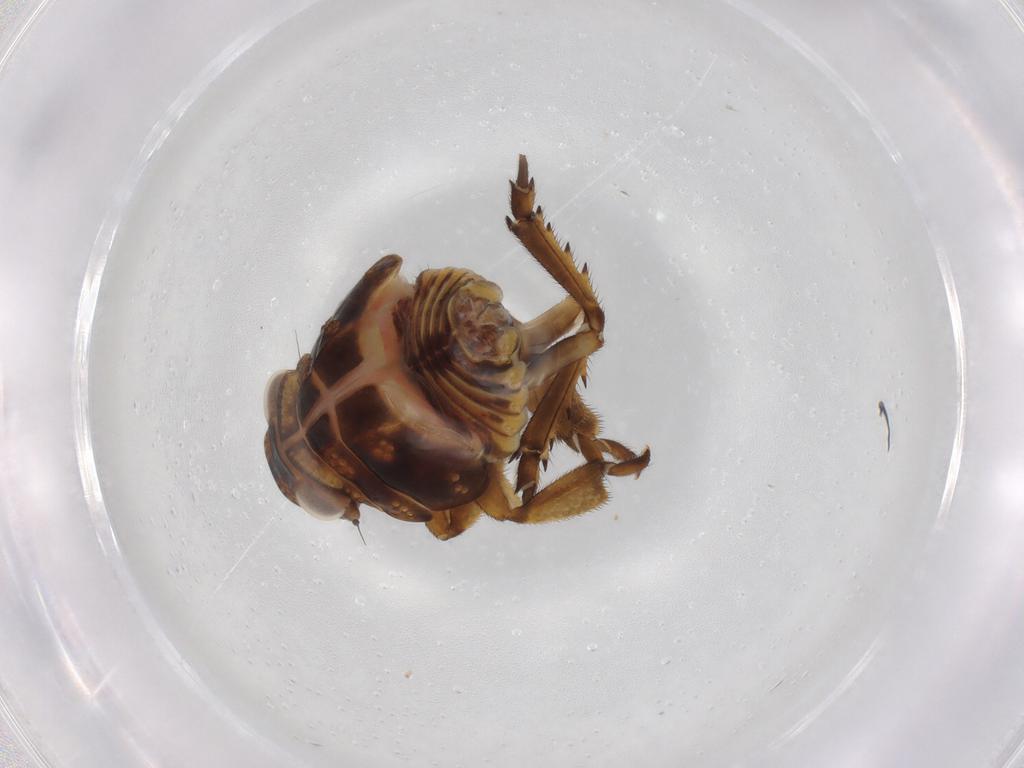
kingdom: Animalia
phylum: Arthropoda
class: Insecta
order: Hemiptera
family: Fulgoroidea_incertae_sedis
